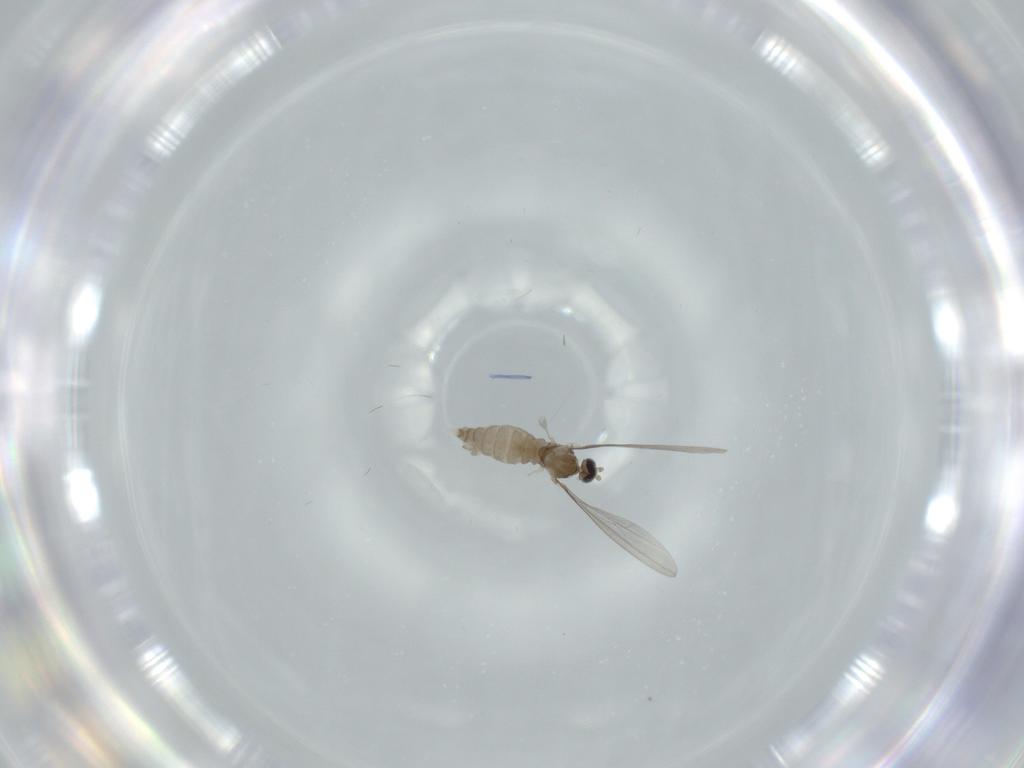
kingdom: Animalia
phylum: Arthropoda
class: Insecta
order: Diptera
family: Cecidomyiidae
